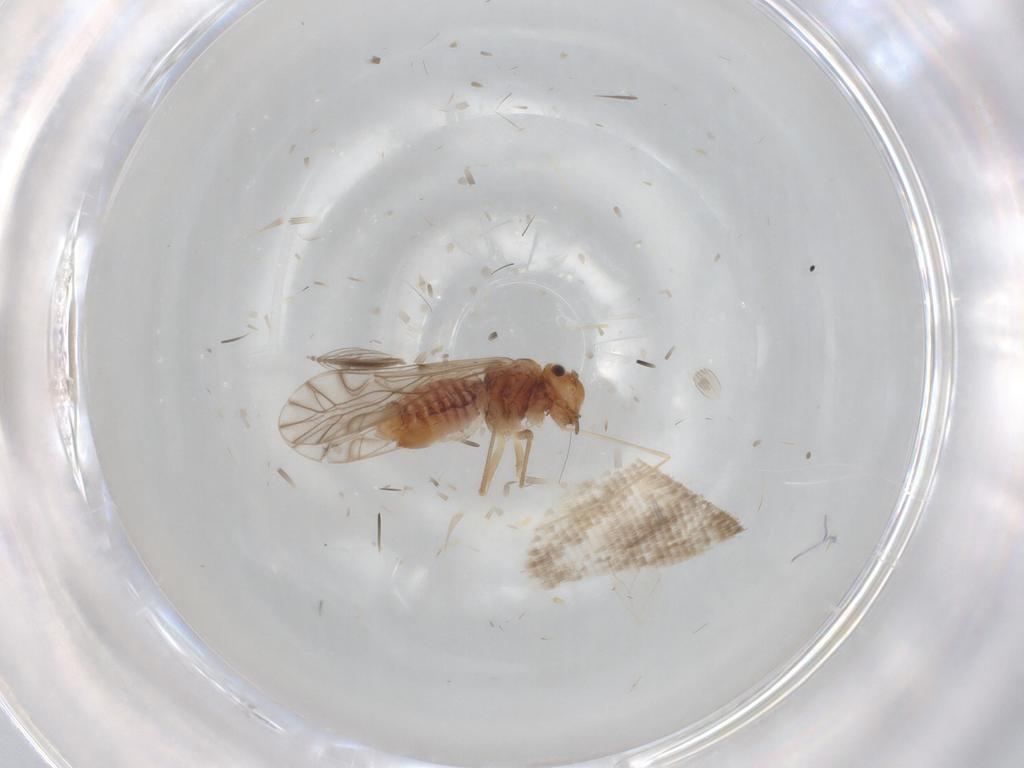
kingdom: Animalia
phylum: Arthropoda
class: Insecta
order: Psocodea
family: Lachesillidae
